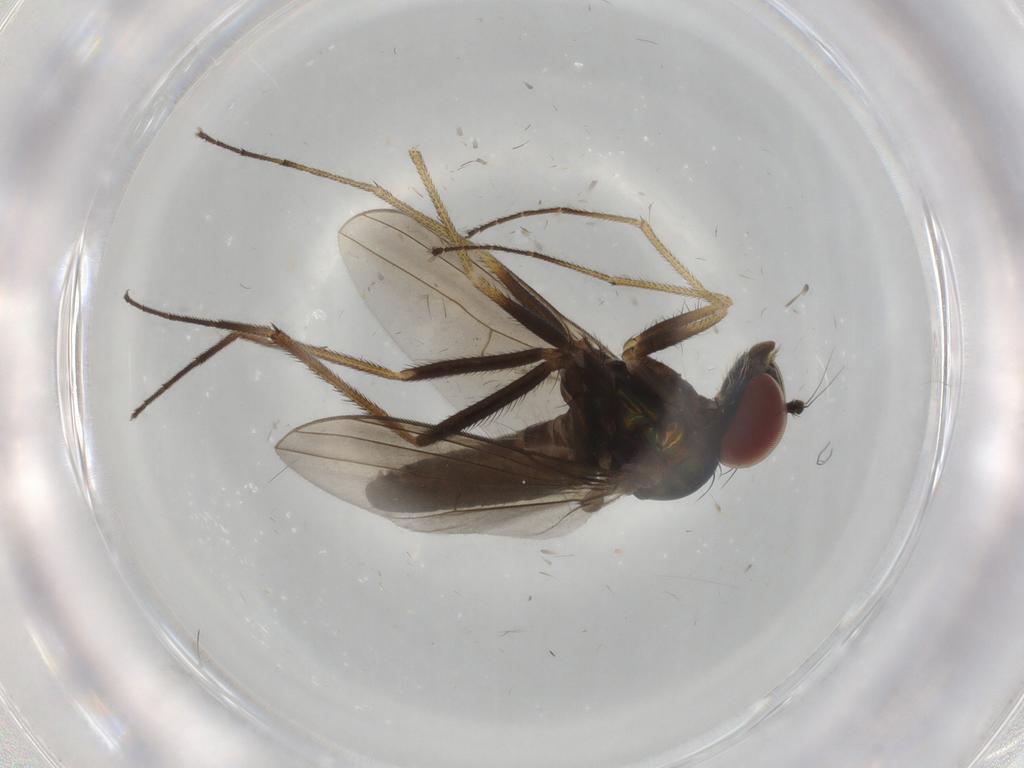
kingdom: Animalia
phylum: Arthropoda
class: Insecta
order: Diptera
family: Dolichopodidae
